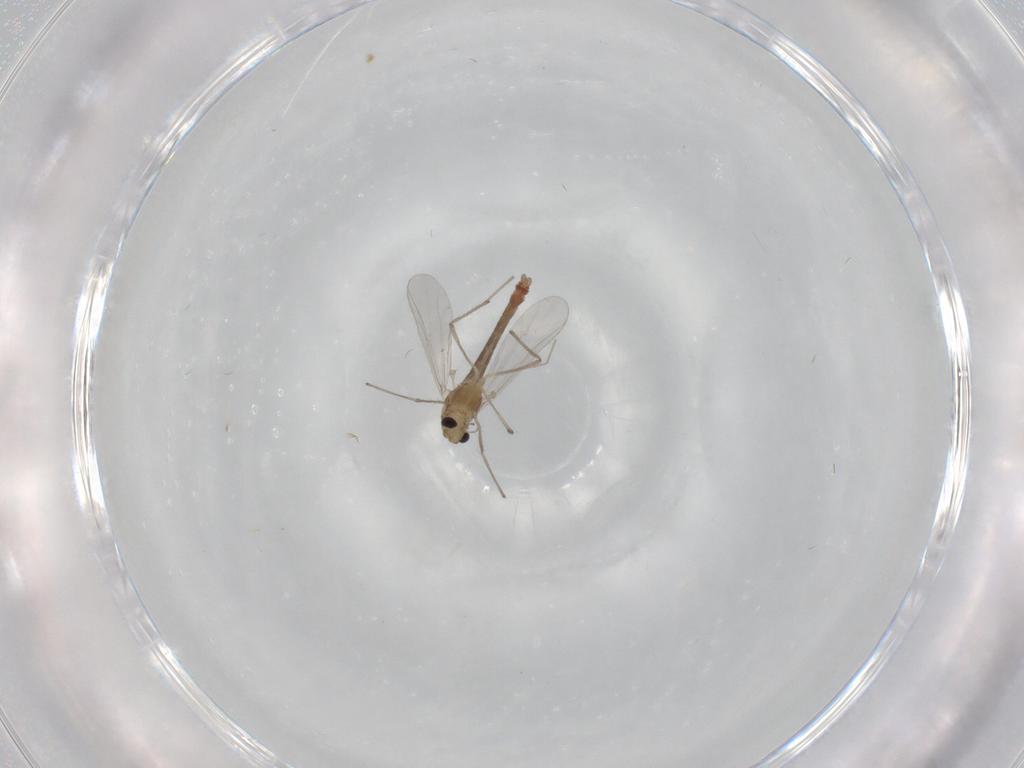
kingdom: Animalia
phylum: Arthropoda
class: Insecta
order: Diptera
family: Chironomidae
